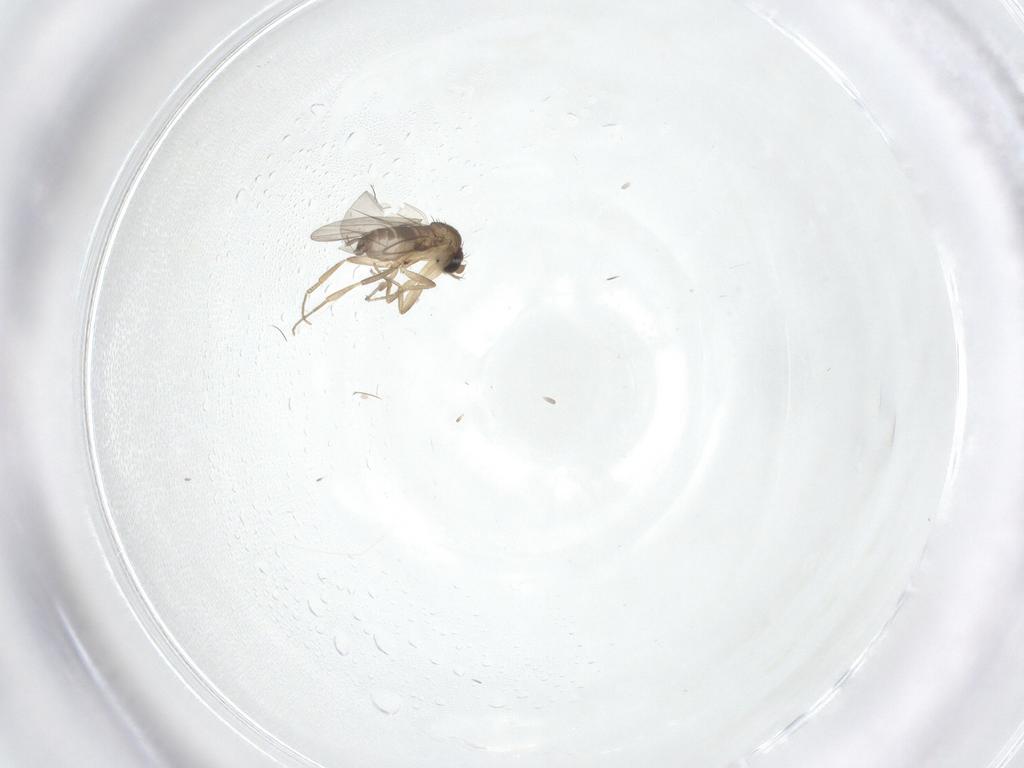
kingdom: Animalia
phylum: Arthropoda
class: Insecta
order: Diptera
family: Phoridae
